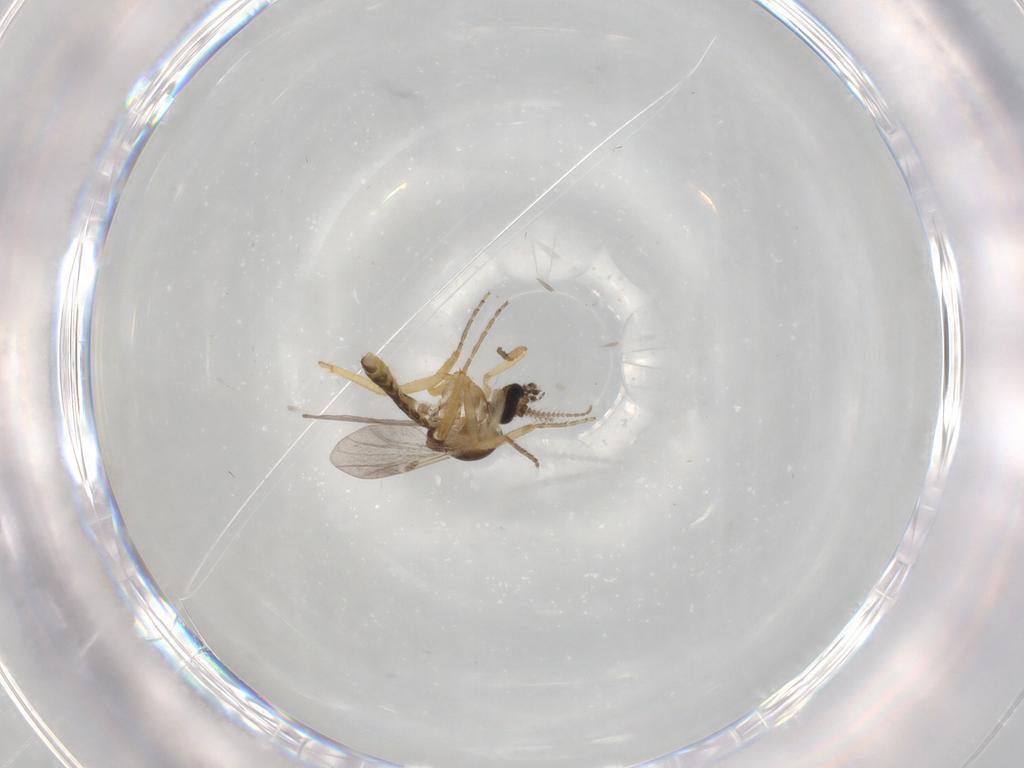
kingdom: Animalia
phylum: Arthropoda
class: Insecta
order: Diptera
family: Ceratopogonidae
